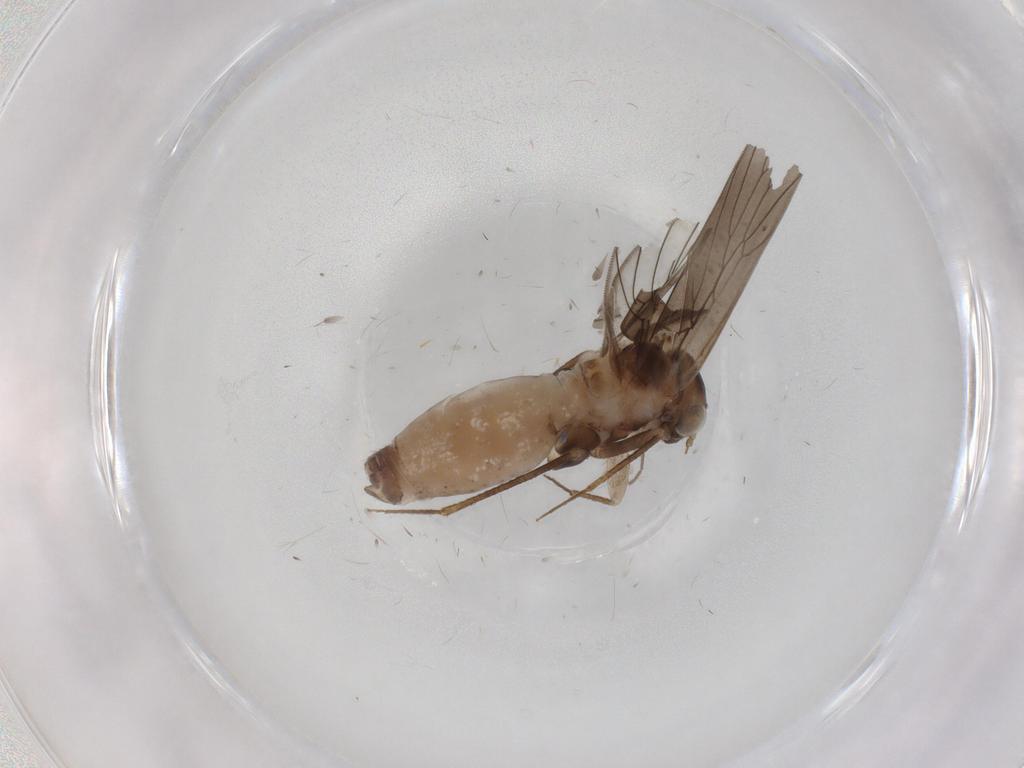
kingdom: Animalia
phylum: Arthropoda
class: Insecta
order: Psocodea
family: Lepidopsocidae
